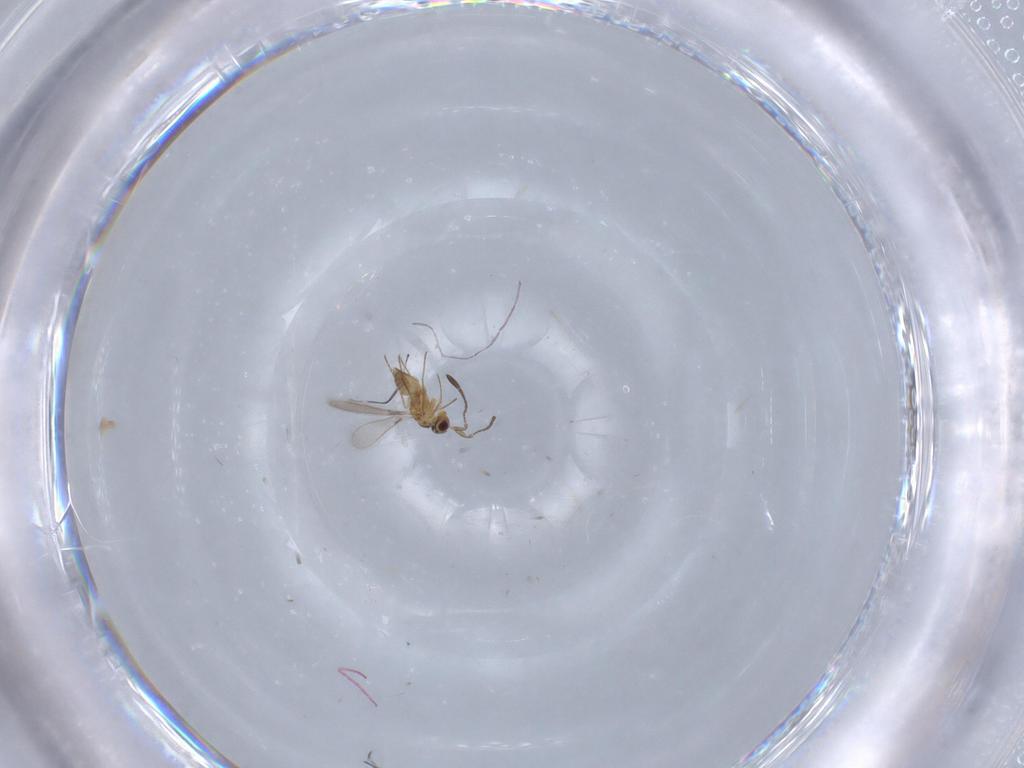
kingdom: Animalia
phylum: Arthropoda
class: Insecta
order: Hymenoptera
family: Mymaridae
